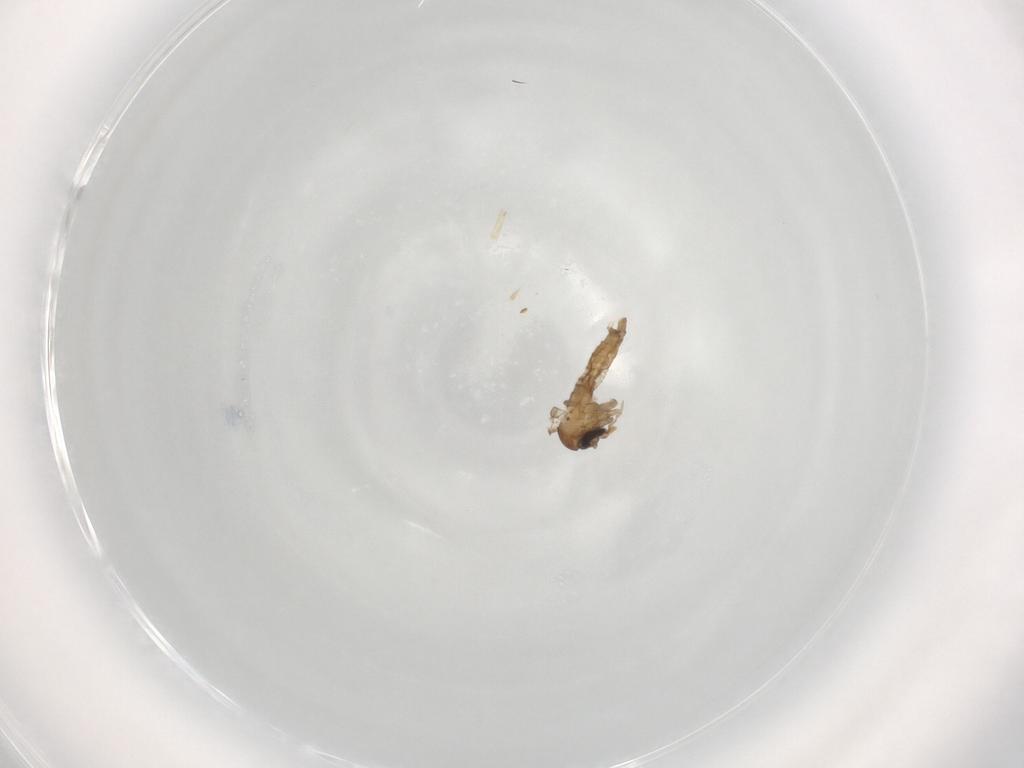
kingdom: Animalia
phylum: Arthropoda
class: Insecta
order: Diptera
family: Psychodidae
